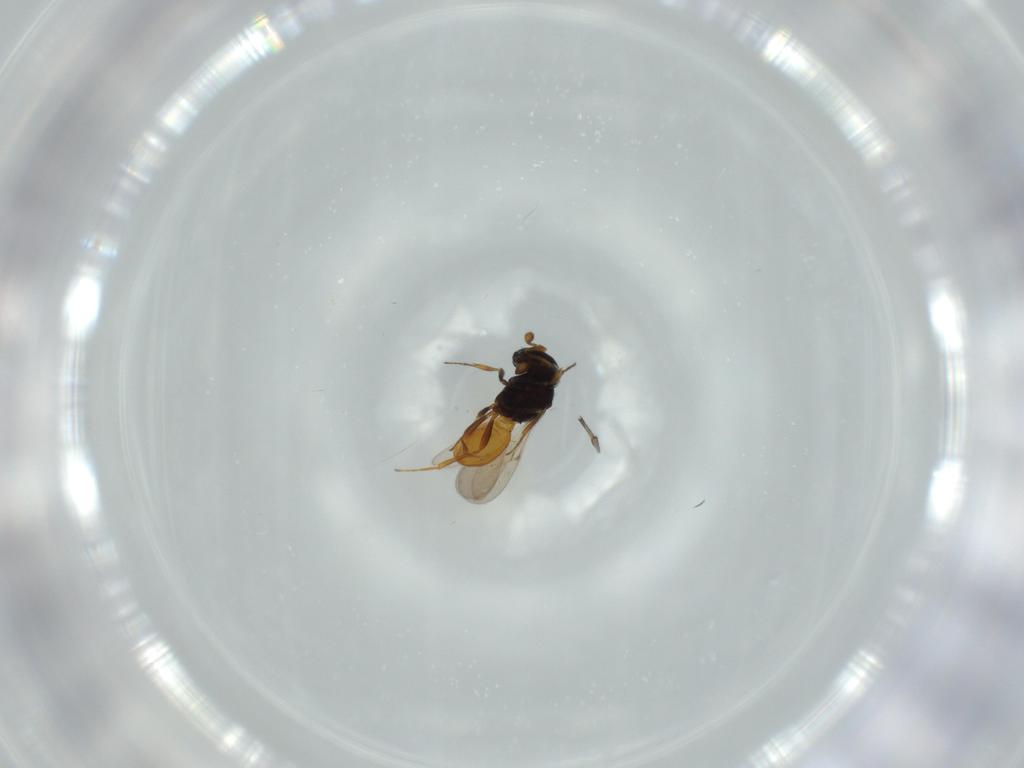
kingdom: Animalia
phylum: Arthropoda
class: Insecta
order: Hymenoptera
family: Scelionidae
